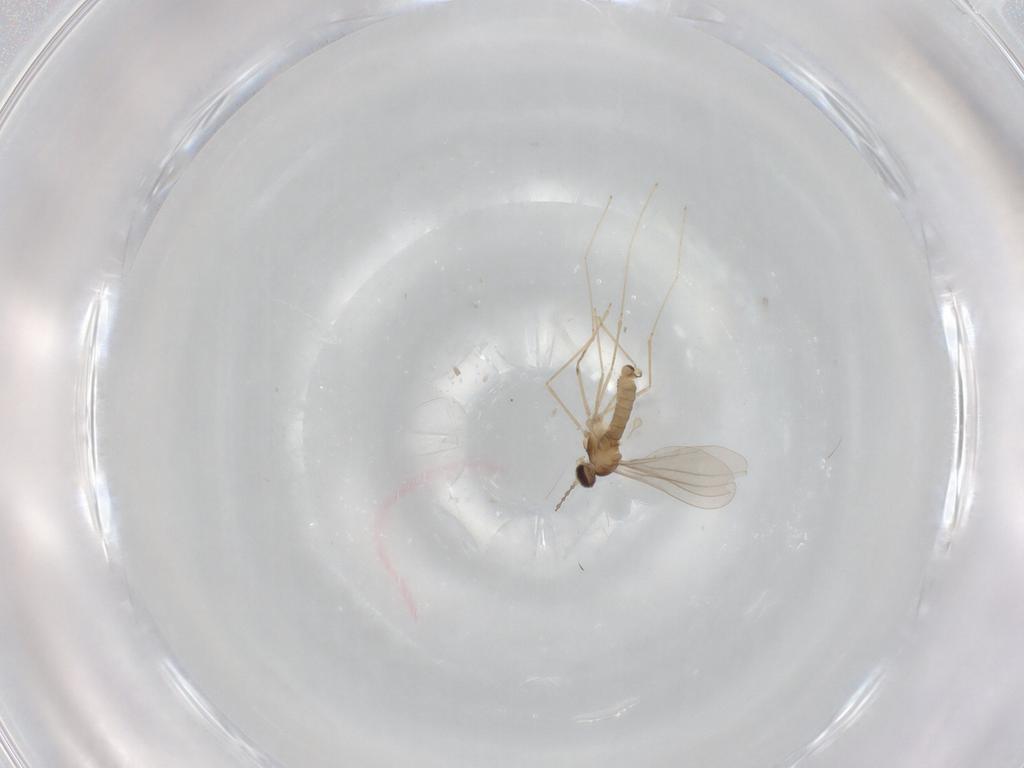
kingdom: Animalia
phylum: Arthropoda
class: Insecta
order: Diptera
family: Cecidomyiidae
